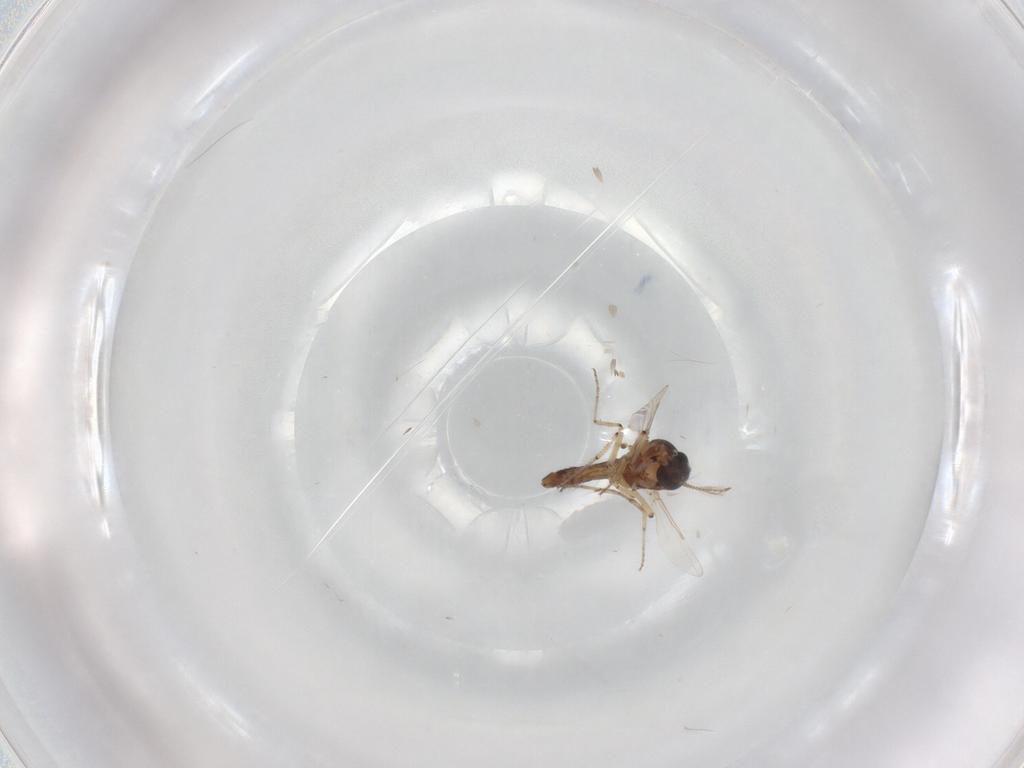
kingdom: Animalia
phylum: Arthropoda
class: Insecta
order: Diptera
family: Ceratopogonidae
